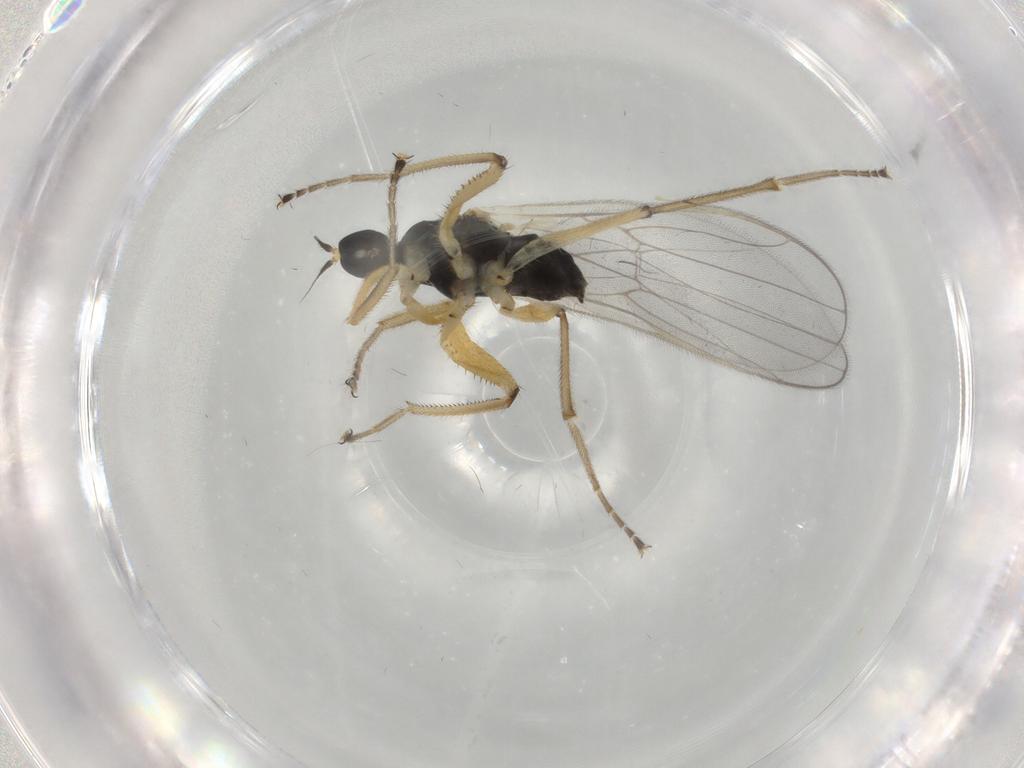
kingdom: Animalia
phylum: Arthropoda
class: Insecta
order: Diptera
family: Hybotidae
